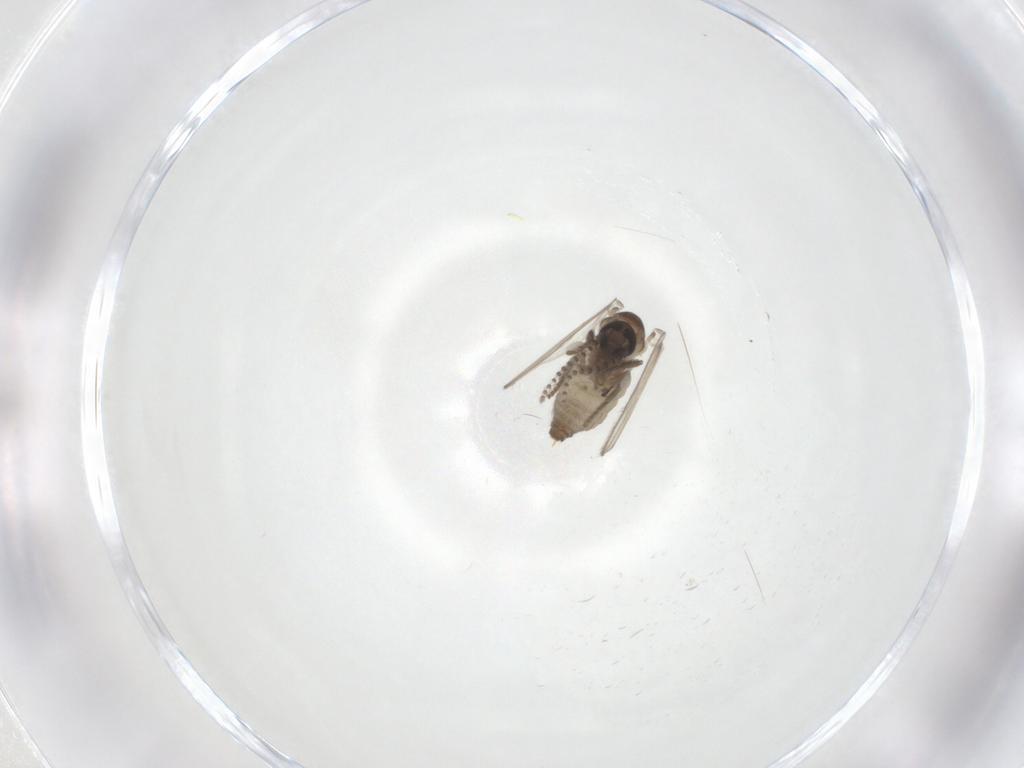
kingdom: Animalia
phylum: Arthropoda
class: Insecta
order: Diptera
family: Psychodidae
